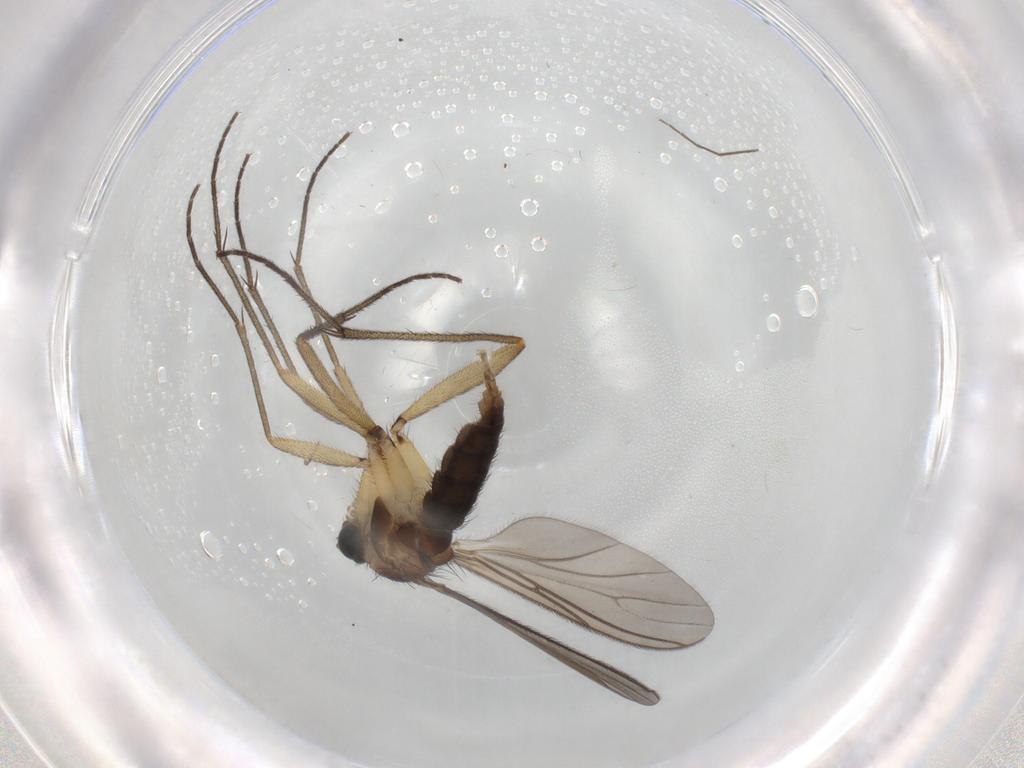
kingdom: Animalia
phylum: Arthropoda
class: Insecta
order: Diptera
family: Sciaridae
